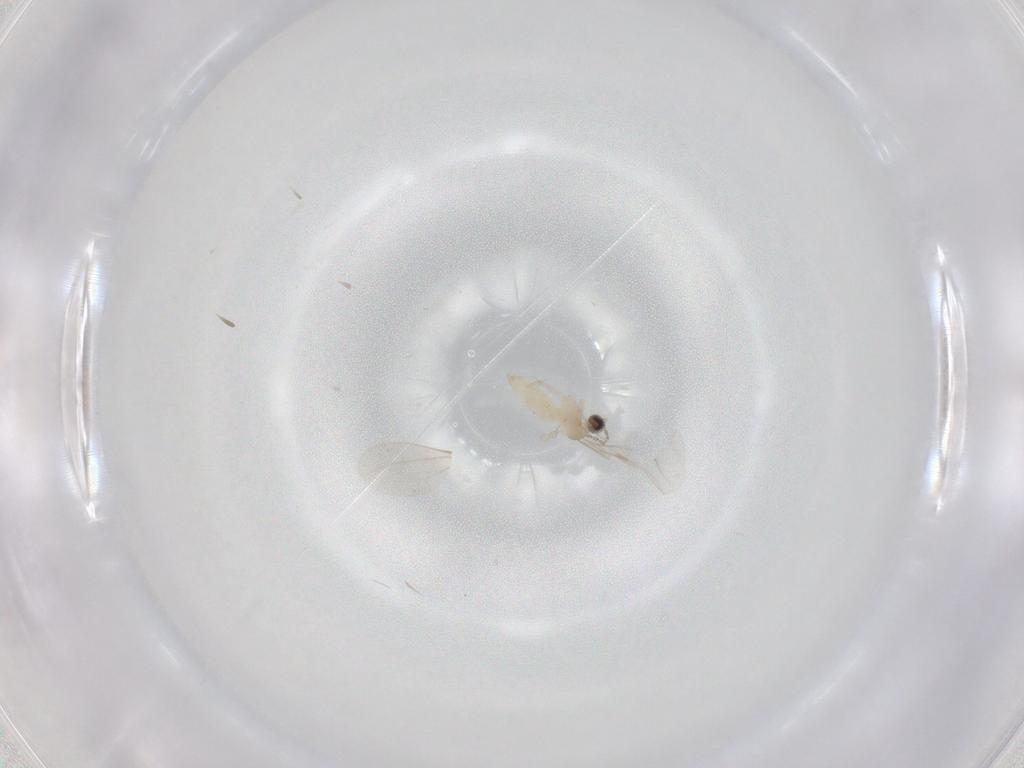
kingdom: Animalia
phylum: Arthropoda
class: Insecta
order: Diptera
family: Cecidomyiidae
